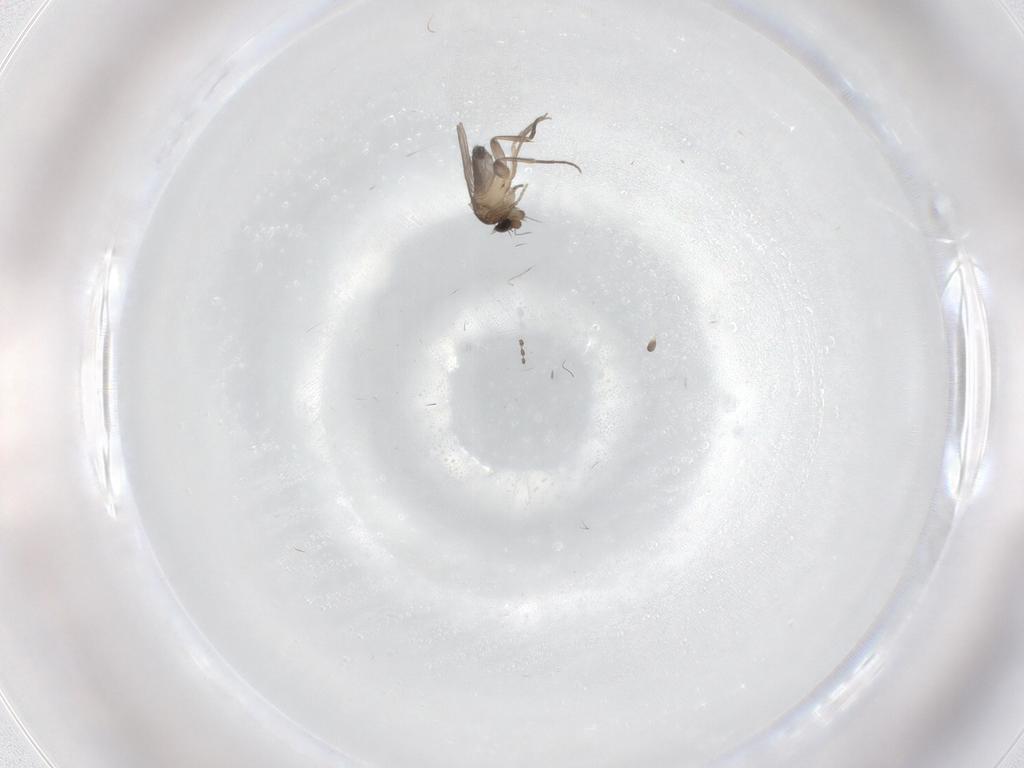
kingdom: Animalia
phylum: Arthropoda
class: Insecta
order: Diptera
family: Phoridae
